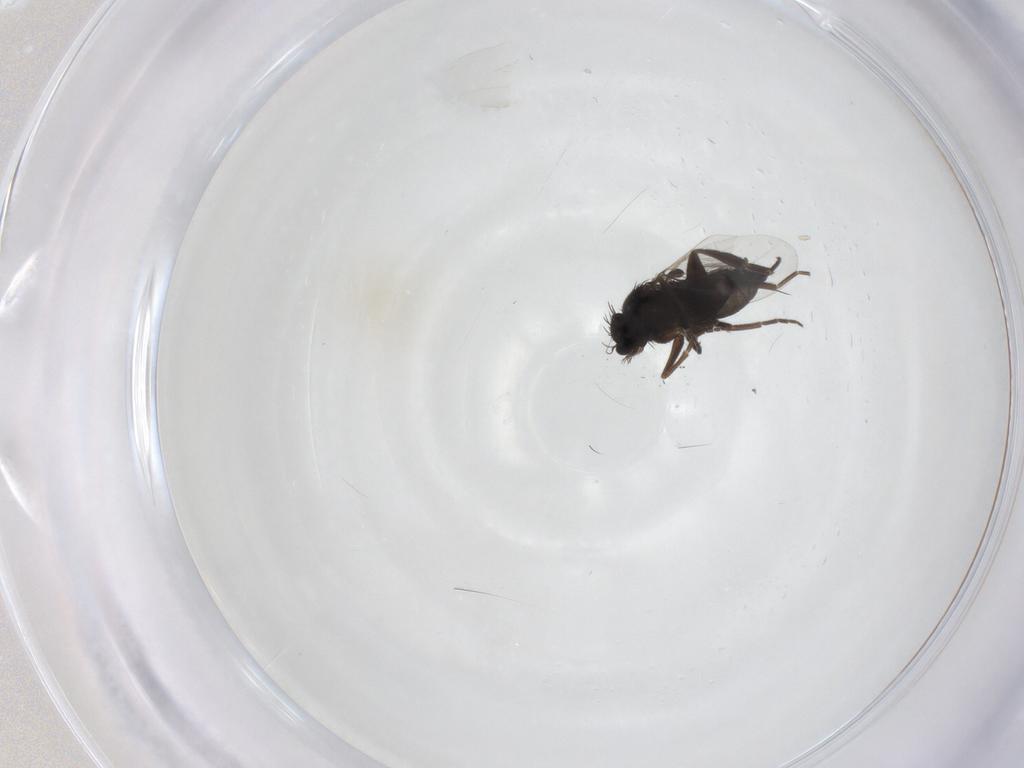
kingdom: Animalia
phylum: Arthropoda
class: Insecta
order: Diptera
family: Phoridae
